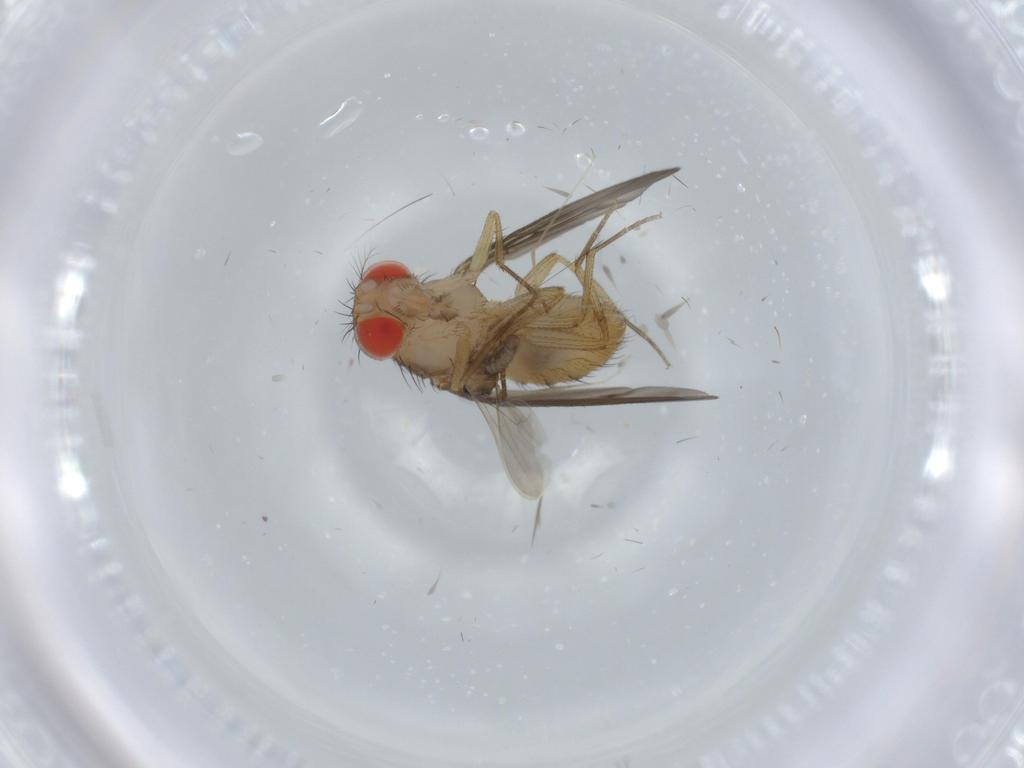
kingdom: Animalia
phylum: Arthropoda
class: Insecta
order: Diptera
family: Drosophilidae
